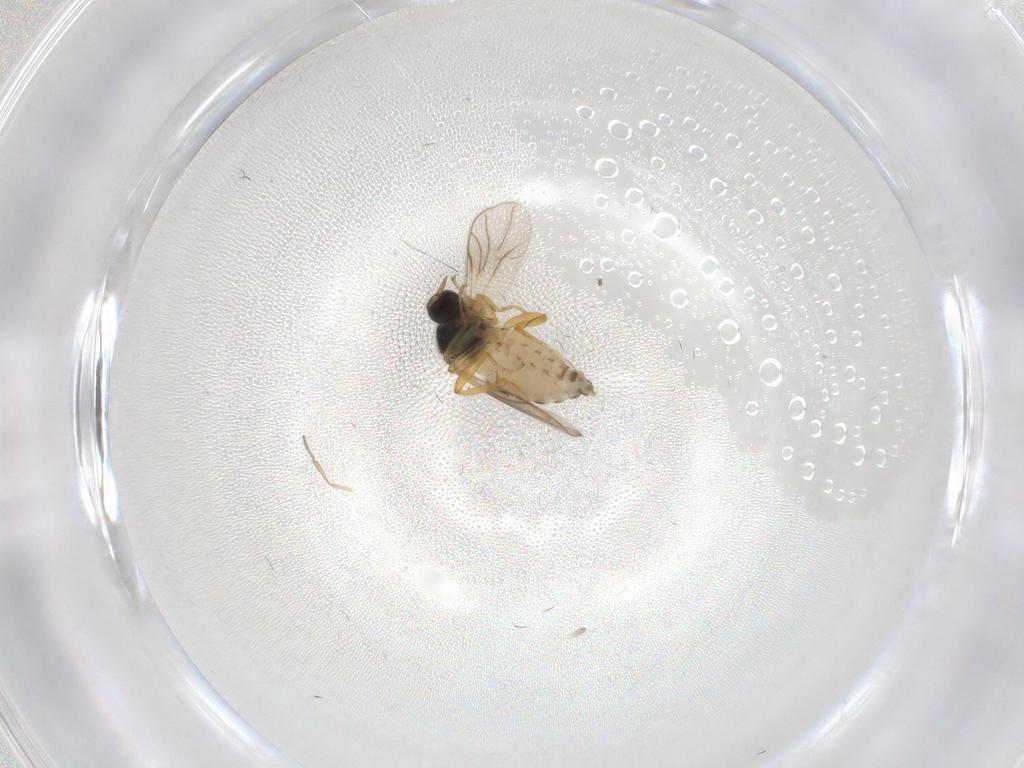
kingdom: Animalia
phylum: Arthropoda
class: Insecta
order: Diptera
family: Hybotidae
